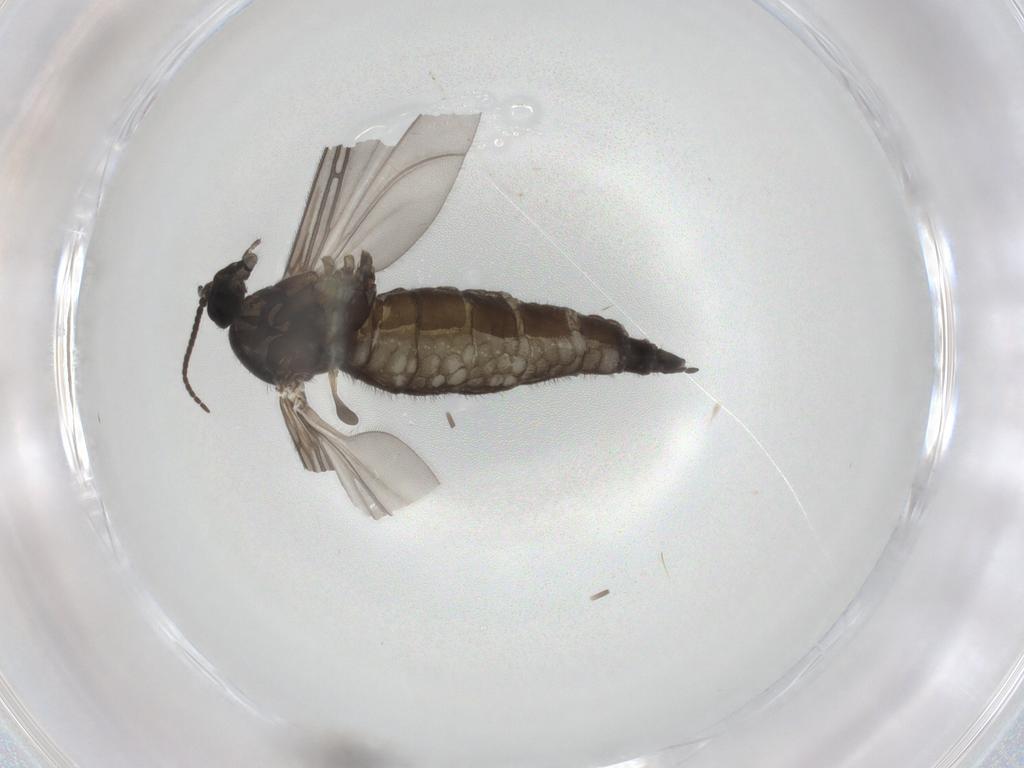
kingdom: Animalia
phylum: Arthropoda
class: Insecta
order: Diptera
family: Sciaridae
